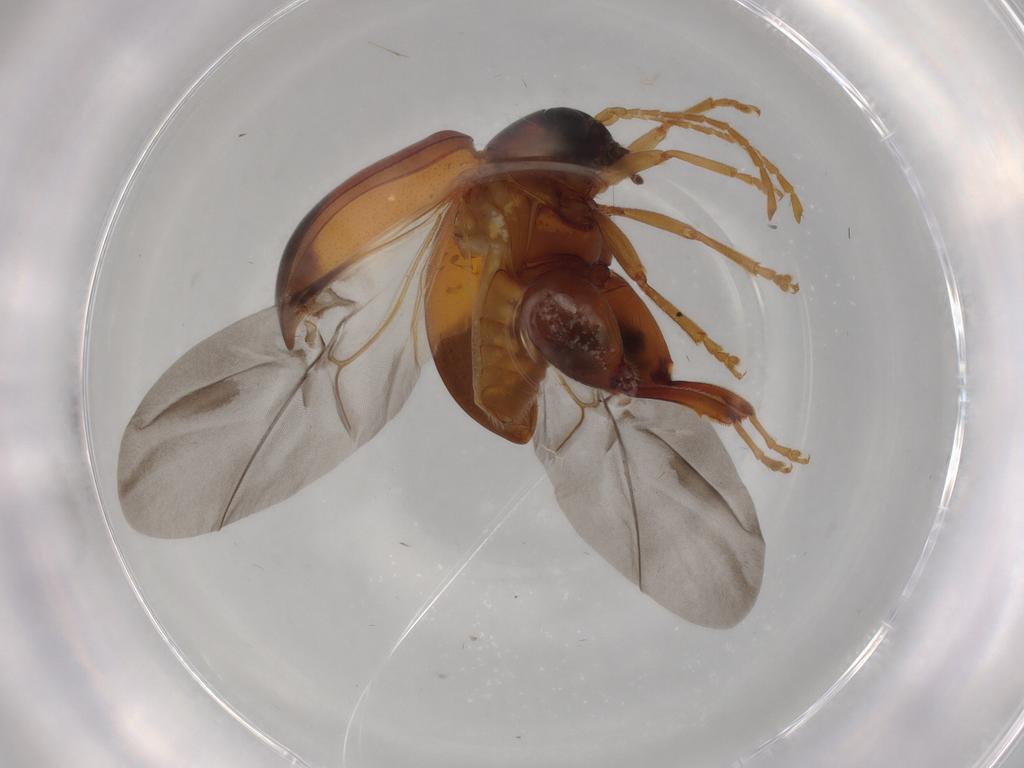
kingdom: Animalia
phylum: Arthropoda
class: Insecta
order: Coleoptera
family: Chrysomelidae
